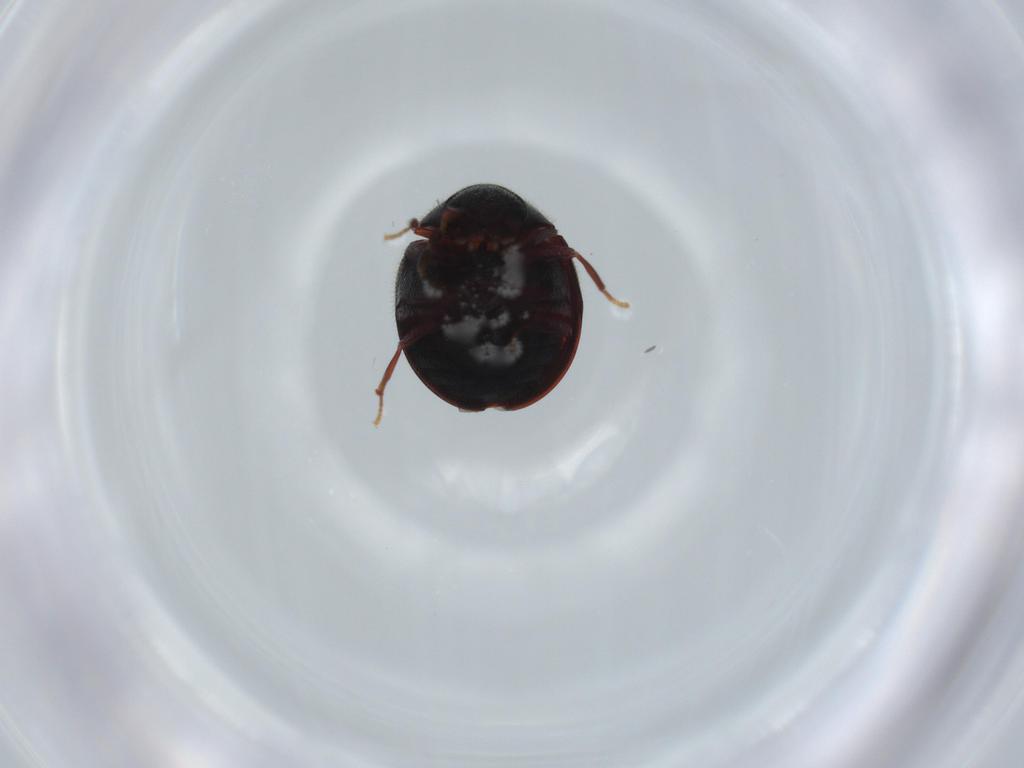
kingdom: Animalia
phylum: Arthropoda
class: Insecta
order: Coleoptera
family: Ptinidae
